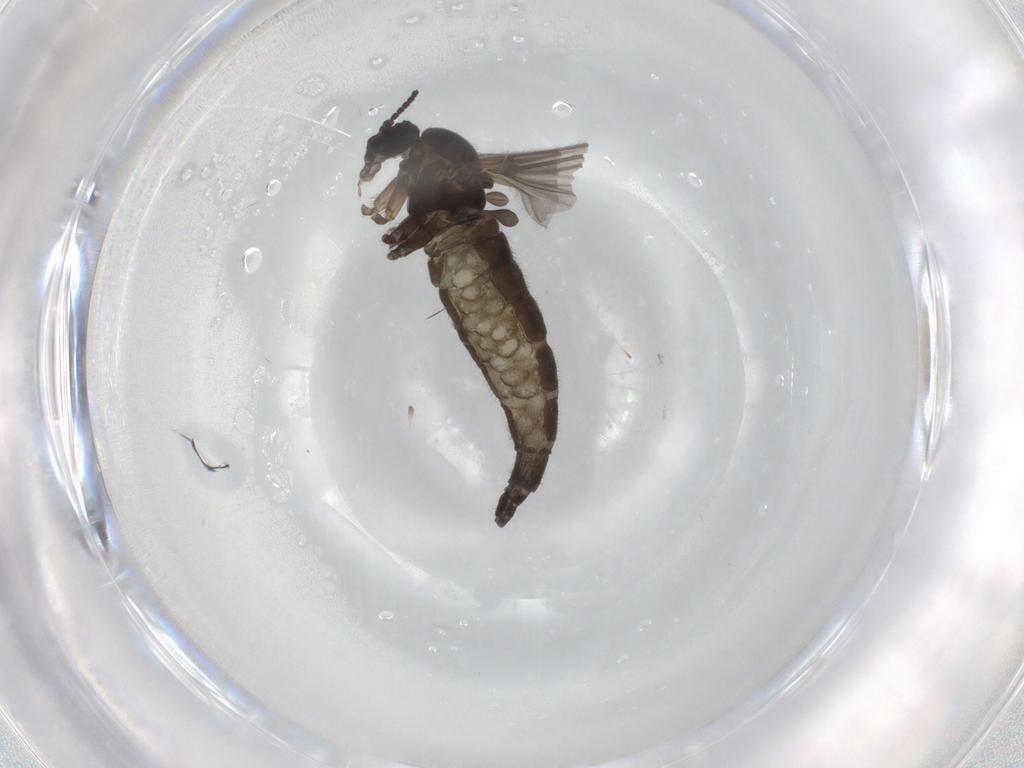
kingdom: Animalia
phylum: Arthropoda
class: Insecta
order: Diptera
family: Sciaridae
